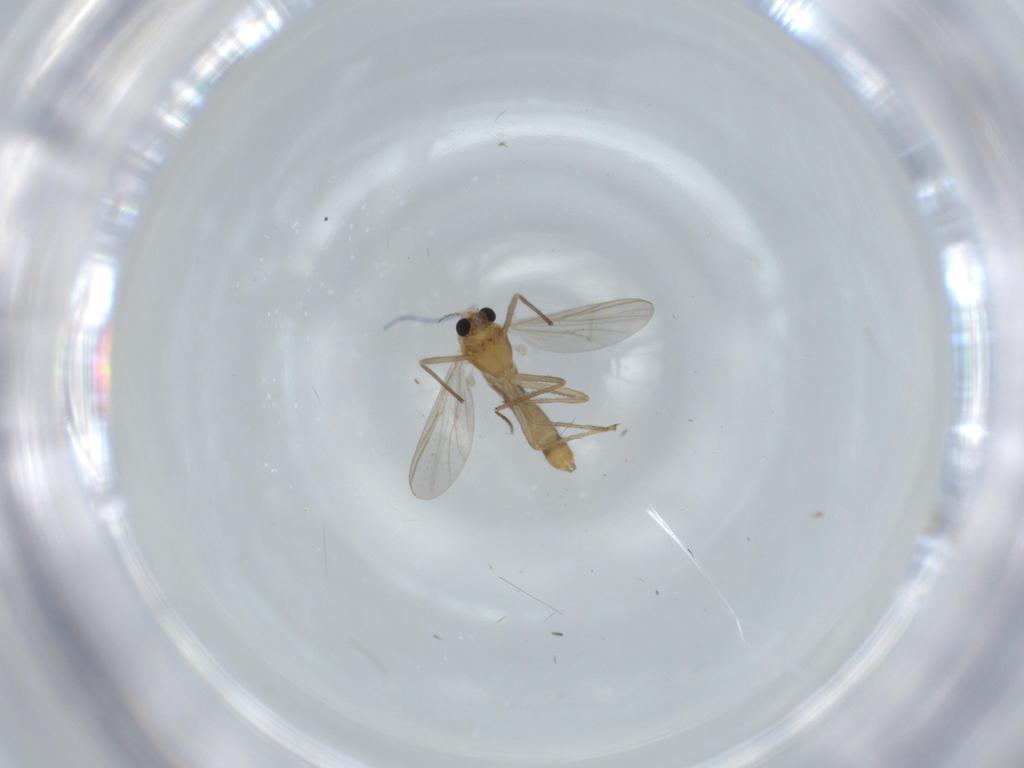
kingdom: Animalia
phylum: Arthropoda
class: Insecta
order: Diptera
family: Chironomidae
